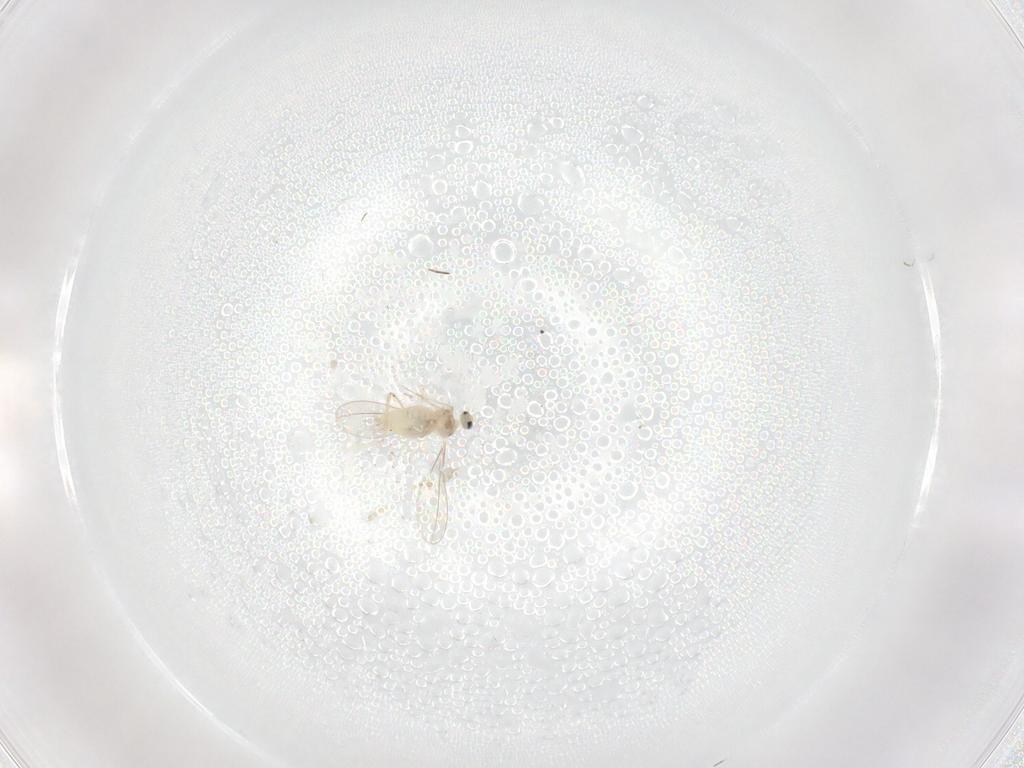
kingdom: Animalia
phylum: Arthropoda
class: Insecta
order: Diptera
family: Cecidomyiidae
